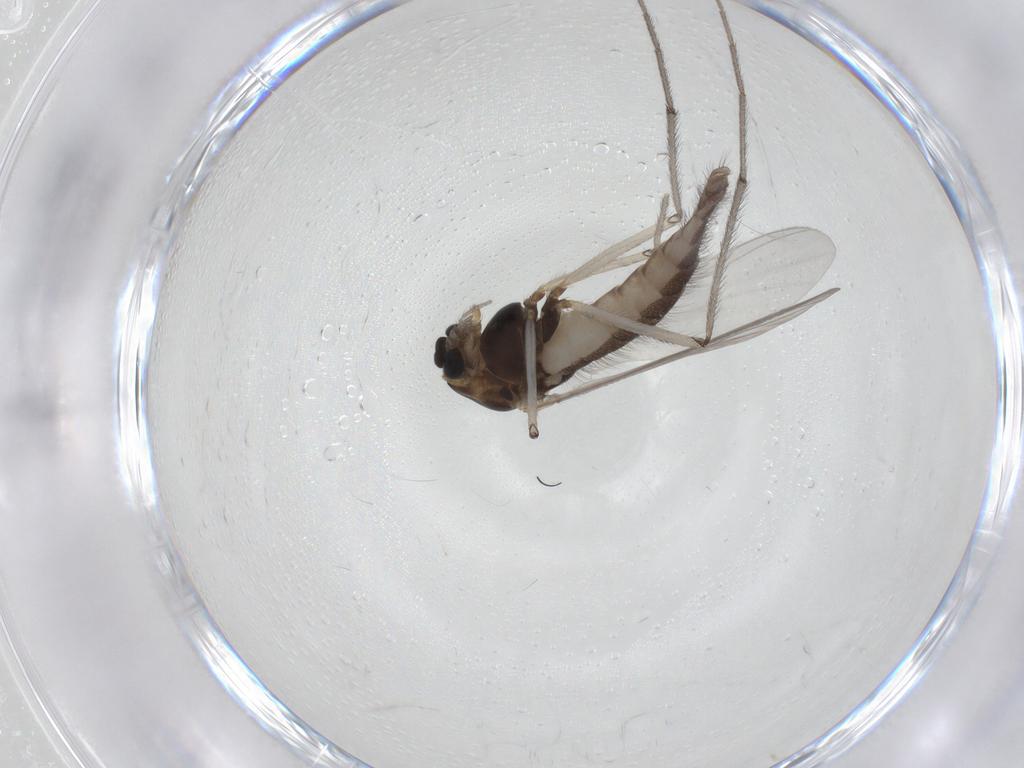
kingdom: Animalia
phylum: Arthropoda
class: Insecta
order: Diptera
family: Chironomidae
